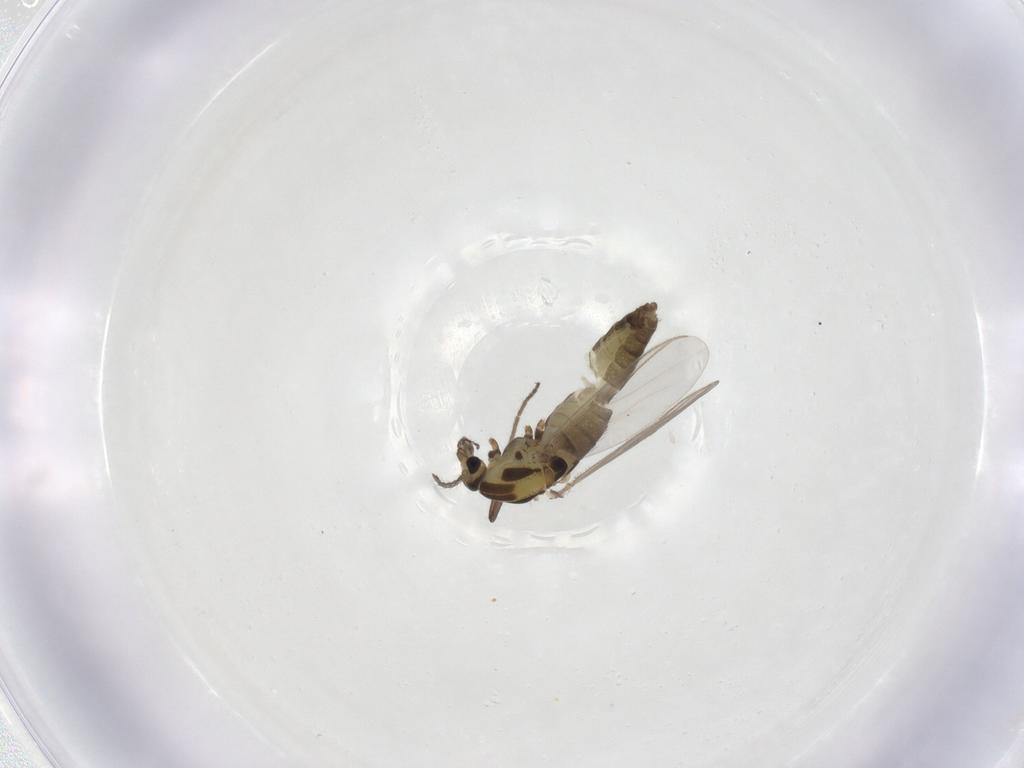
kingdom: Animalia
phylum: Arthropoda
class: Insecta
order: Diptera
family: Chironomidae
